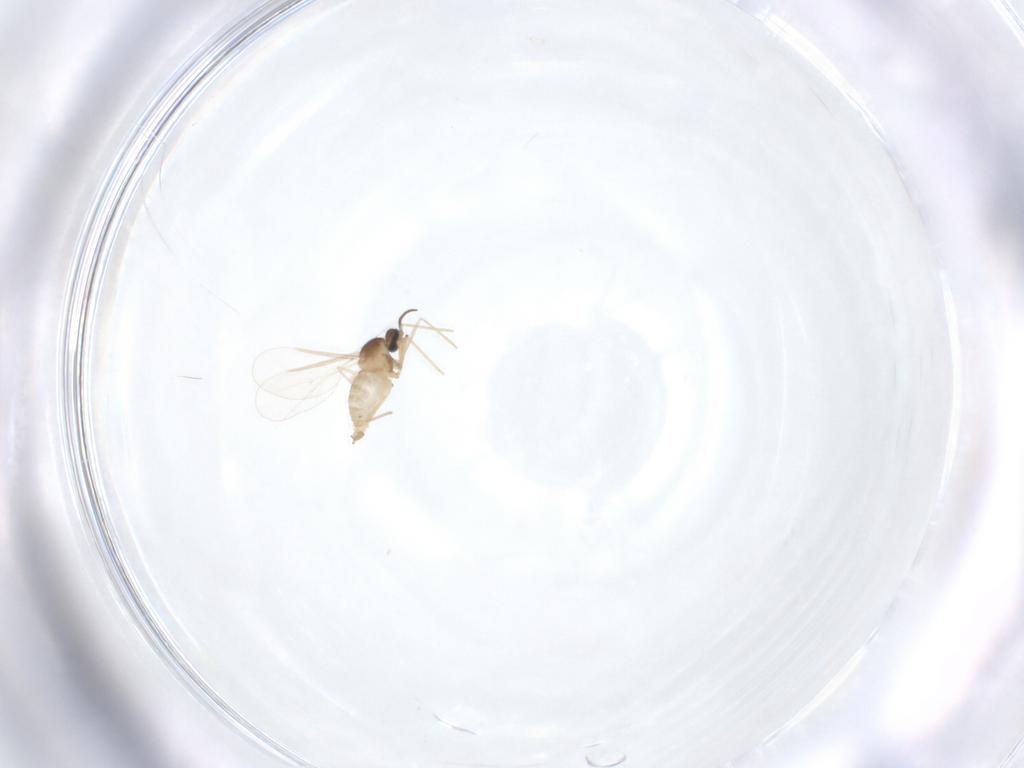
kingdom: Animalia
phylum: Arthropoda
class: Insecta
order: Diptera
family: Cecidomyiidae
